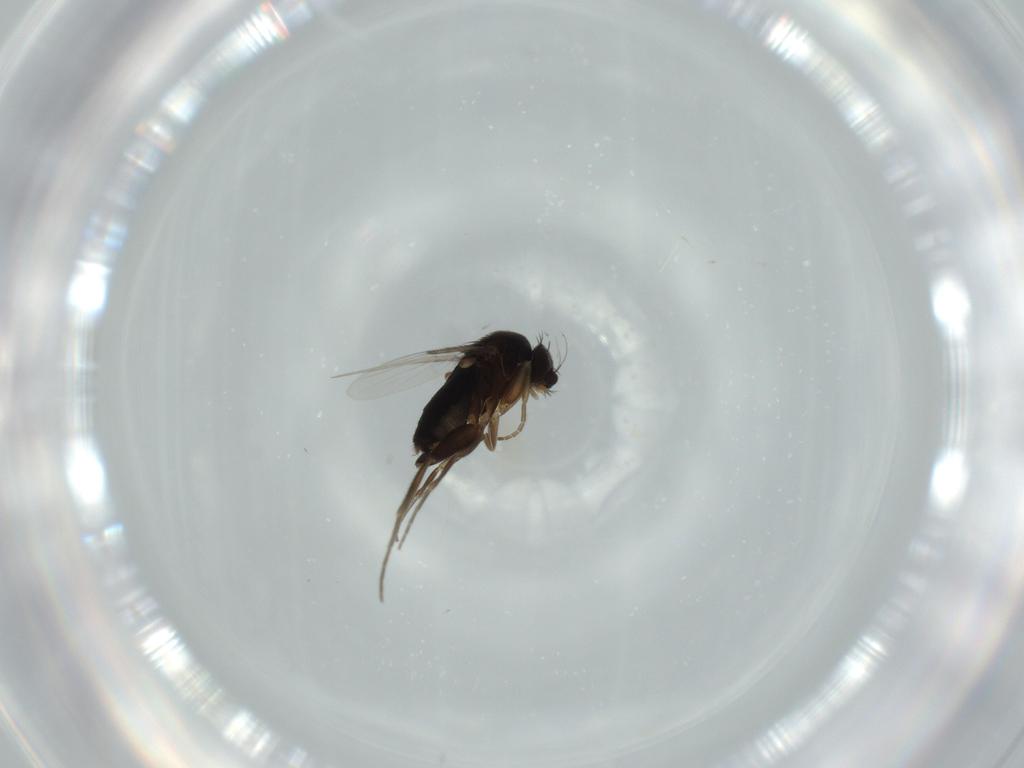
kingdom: Animalia
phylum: Arthropoda
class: Insecta
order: Diptera
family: Phoridae
